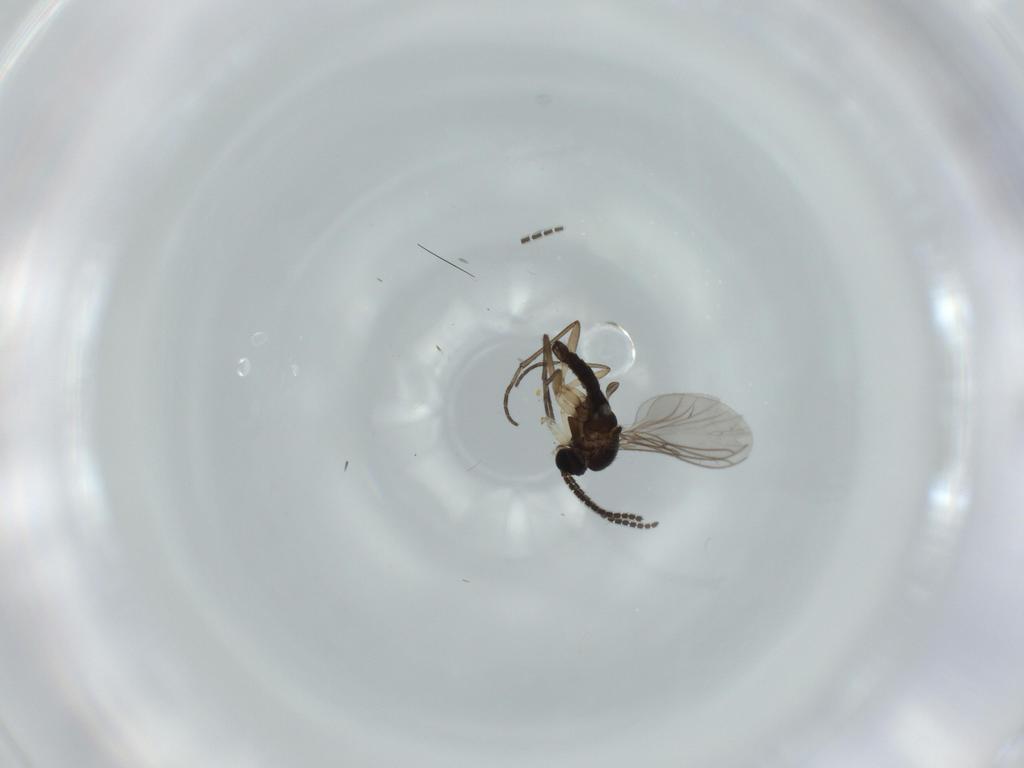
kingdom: Animalia
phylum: Arthropoda
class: Insecta
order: Diptera
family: Sciaridae
